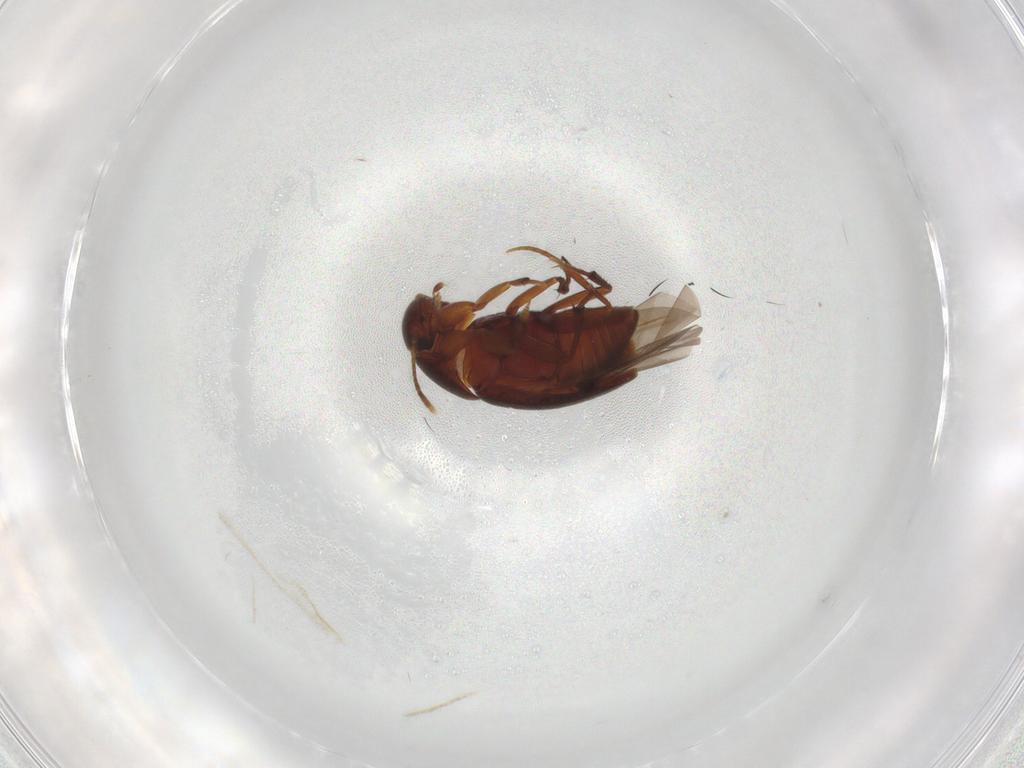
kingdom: Animalia
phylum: Arthropoda
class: Insecta
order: Coleoptera
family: Leiodidae
